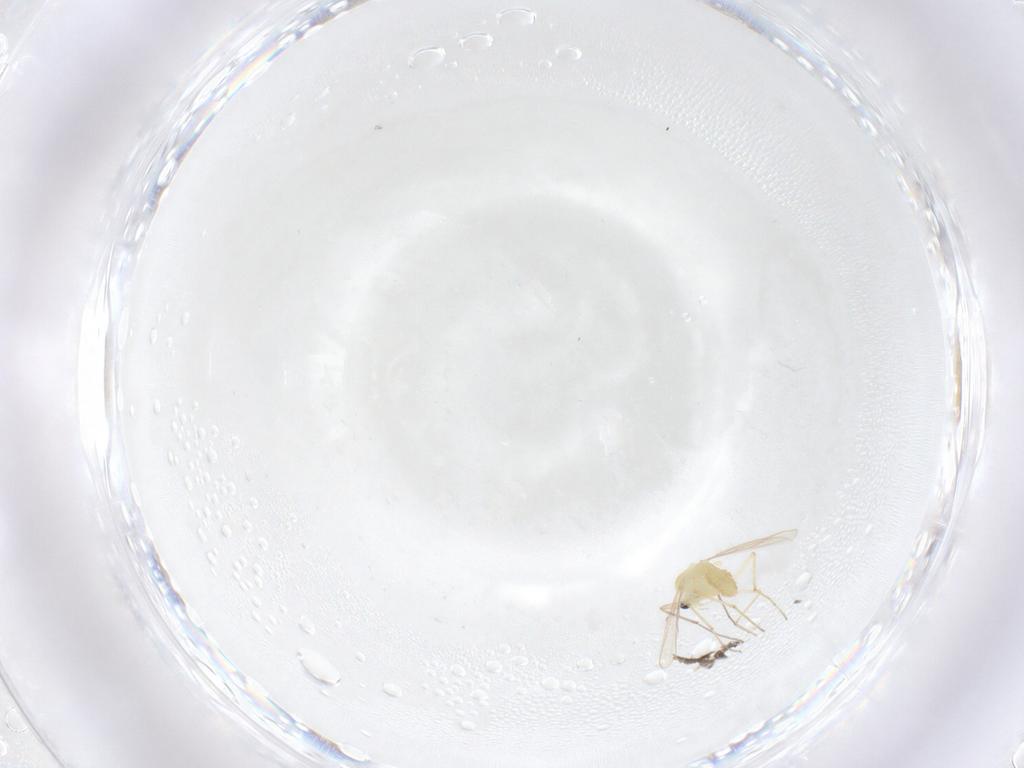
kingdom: Animalia
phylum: Arthropoda
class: Insecta
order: Diptera
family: Chironomidae
